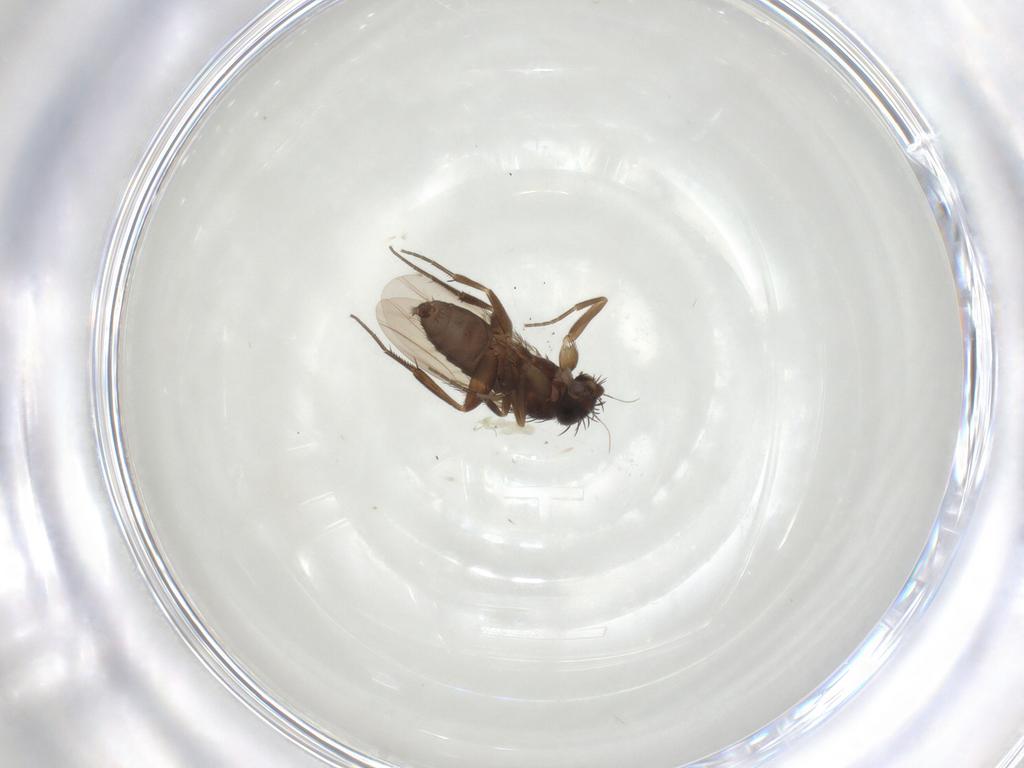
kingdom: Animalia
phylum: Arthropoda
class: Insecta
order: Diptera
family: Phoridae
